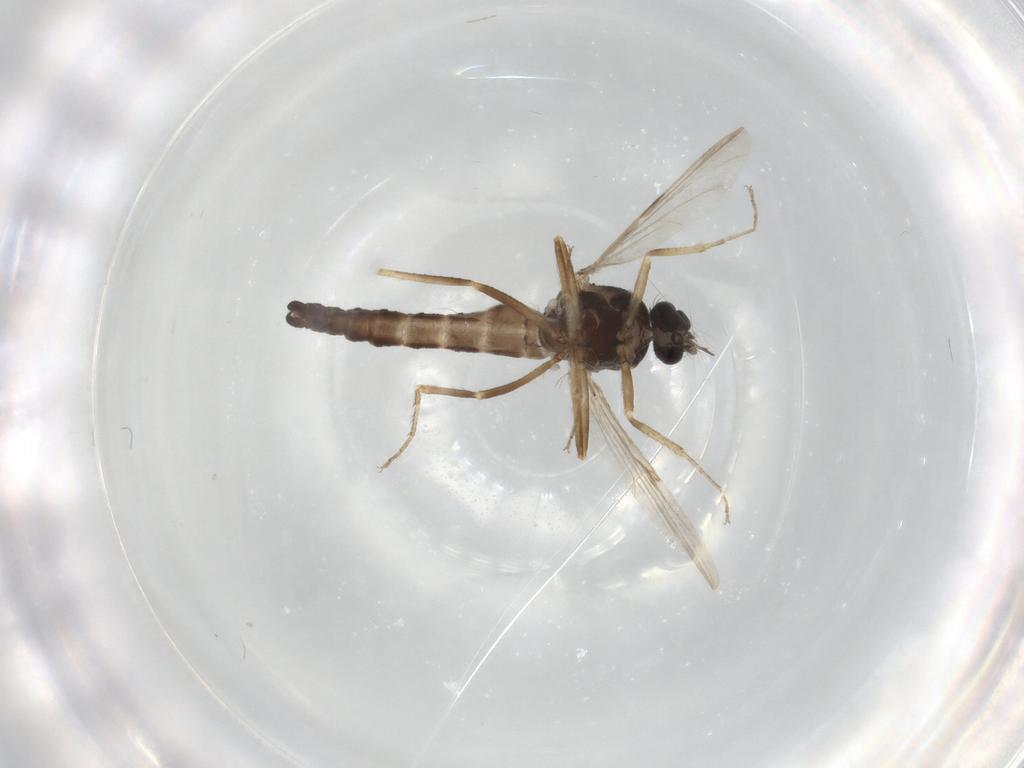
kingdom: Animalia
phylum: Arthropoda
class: Insecta
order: Diptera
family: Ceratopogonidae
